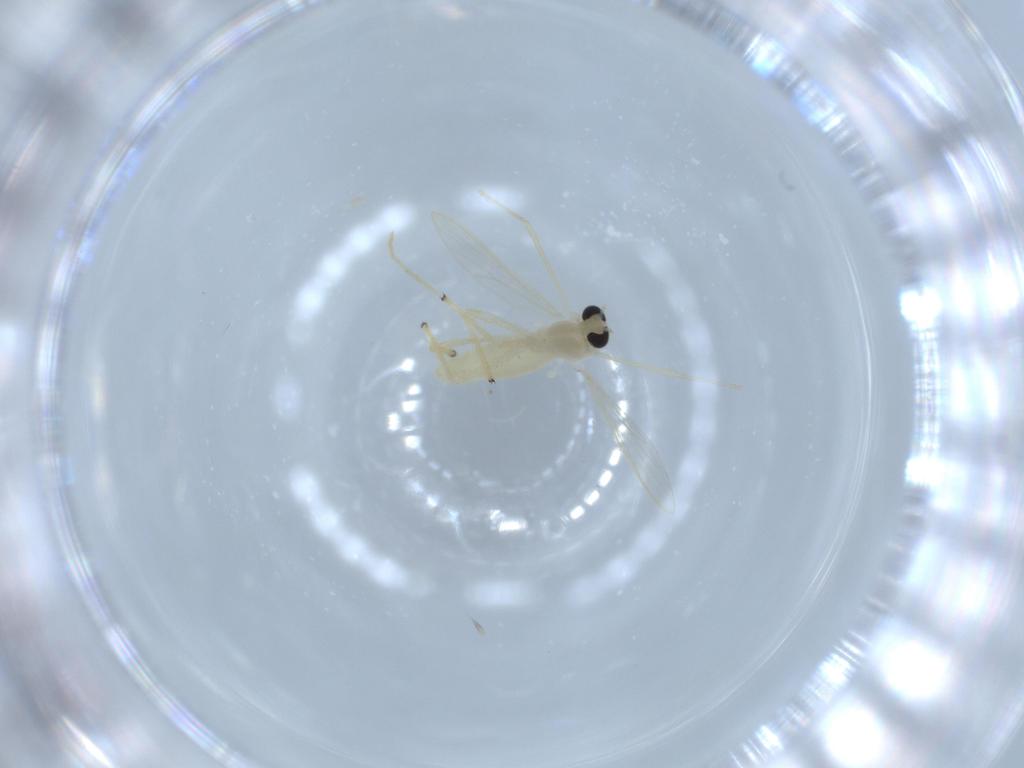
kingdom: Animalia
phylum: Arthropoda
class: Insecta
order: Diptera
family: Chironomidae
